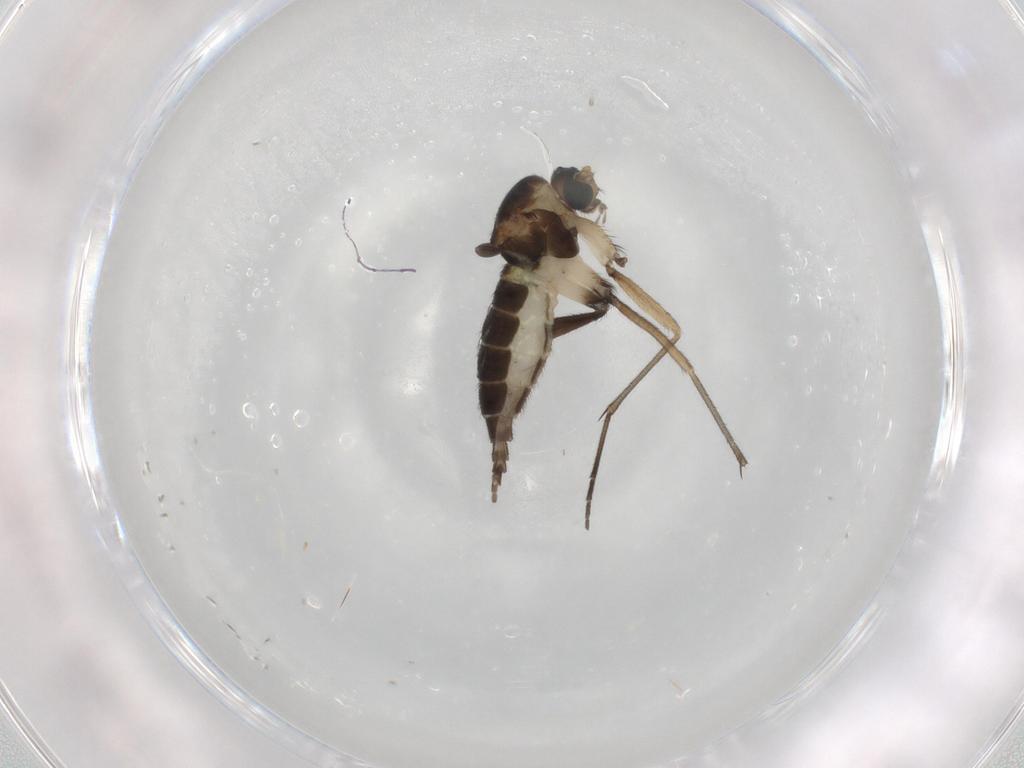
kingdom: Animalia
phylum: Arthropoda
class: Insecta
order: Diptera
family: Sciaridae
